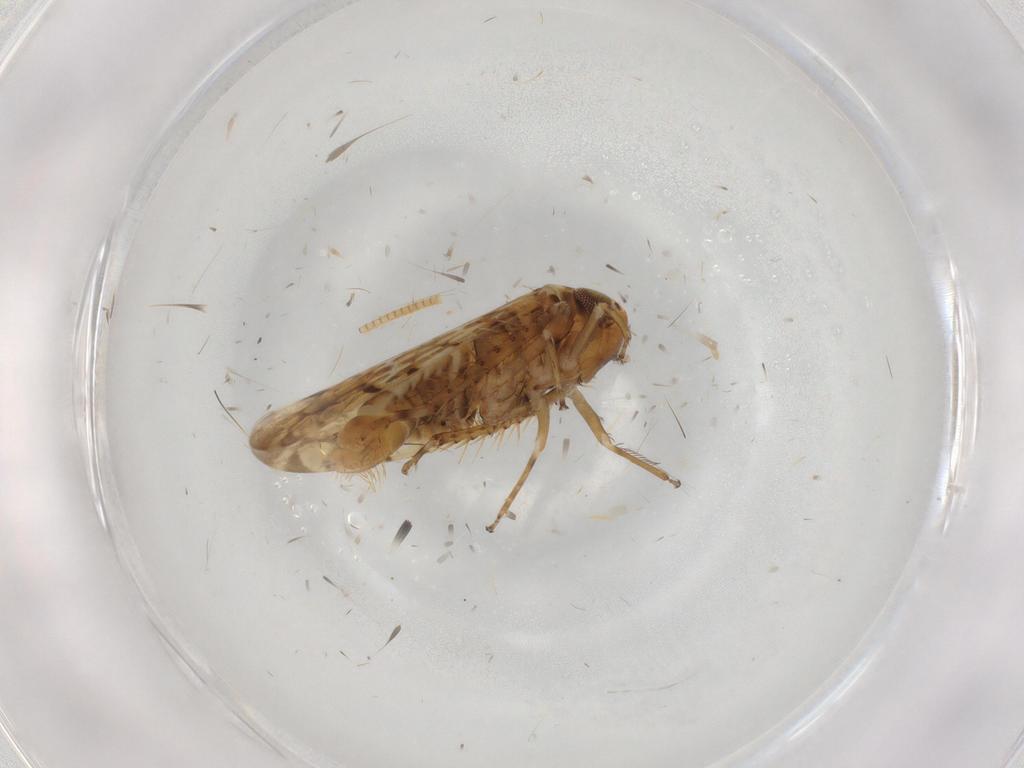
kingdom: Animalia
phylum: Arthropoda
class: Insecta
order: Hemiptera
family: Cicadellidae
